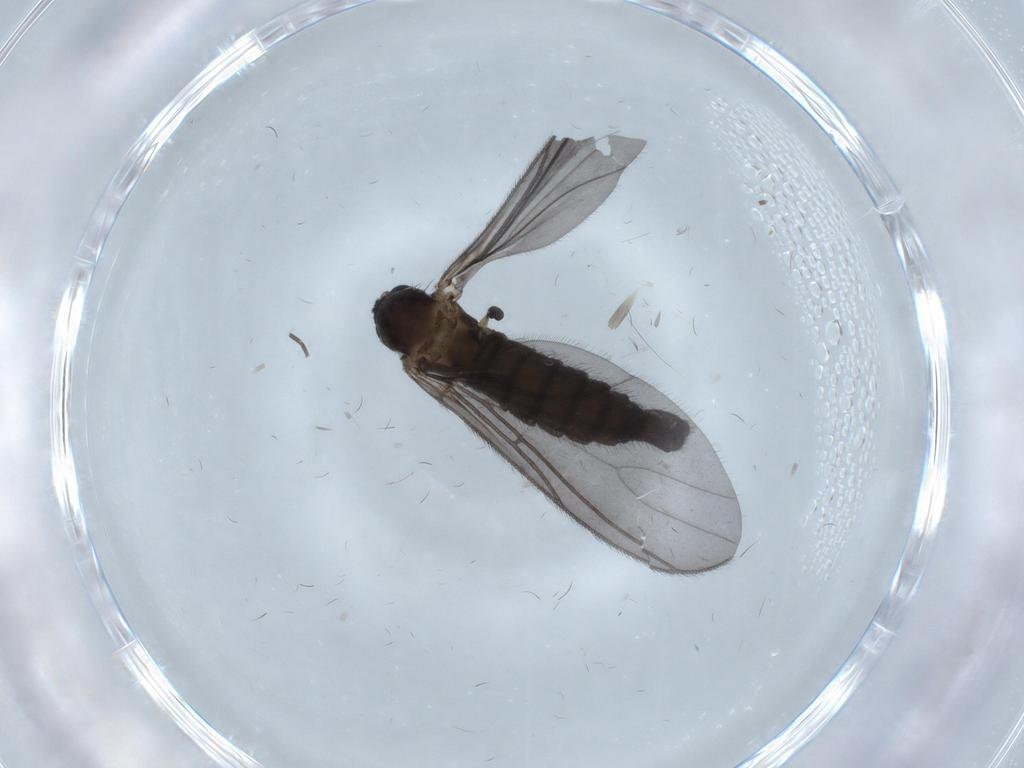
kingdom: Animalia
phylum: Arthropoda
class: Insecta
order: Diptera
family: Sciaridae
